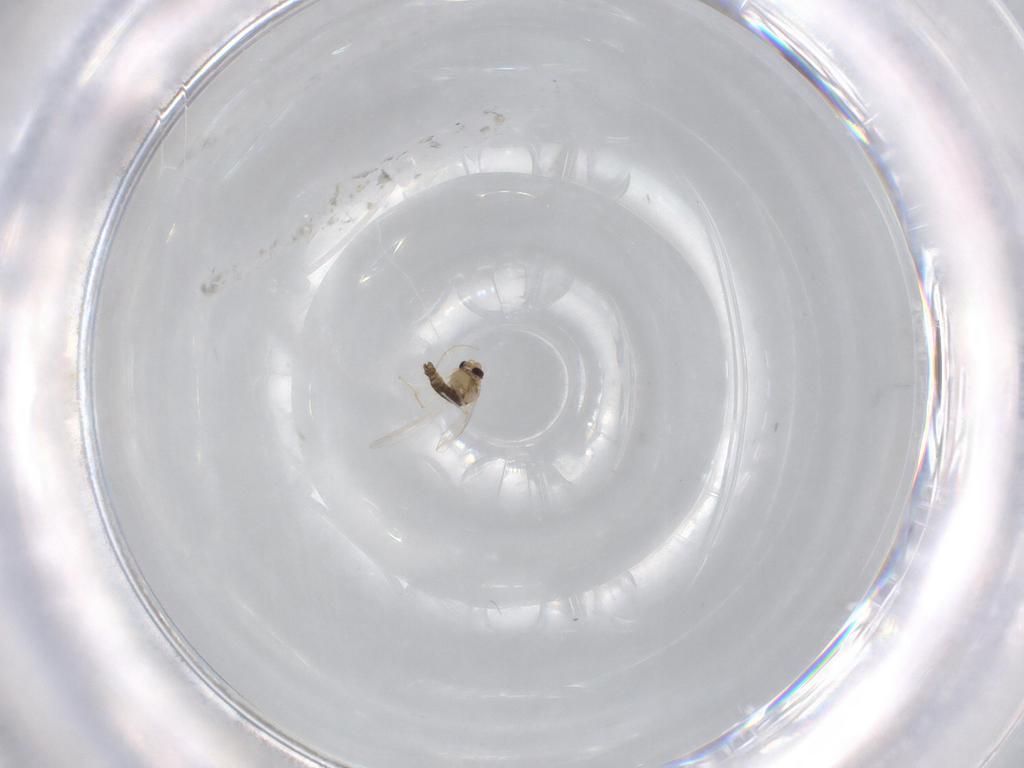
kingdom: Animalia
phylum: Arthropoda
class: Insecta
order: Diptera
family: Chironomidae
